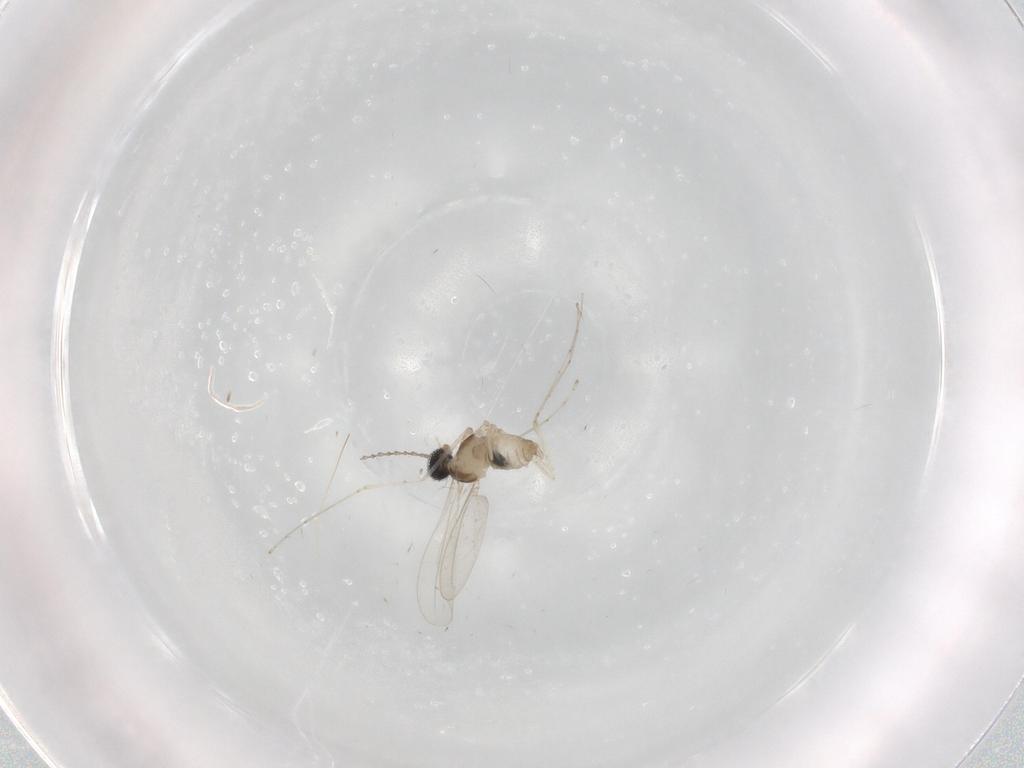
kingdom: Animalia
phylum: Arthropoda
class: Insecta
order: Diptera
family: Cecidomyiidae
